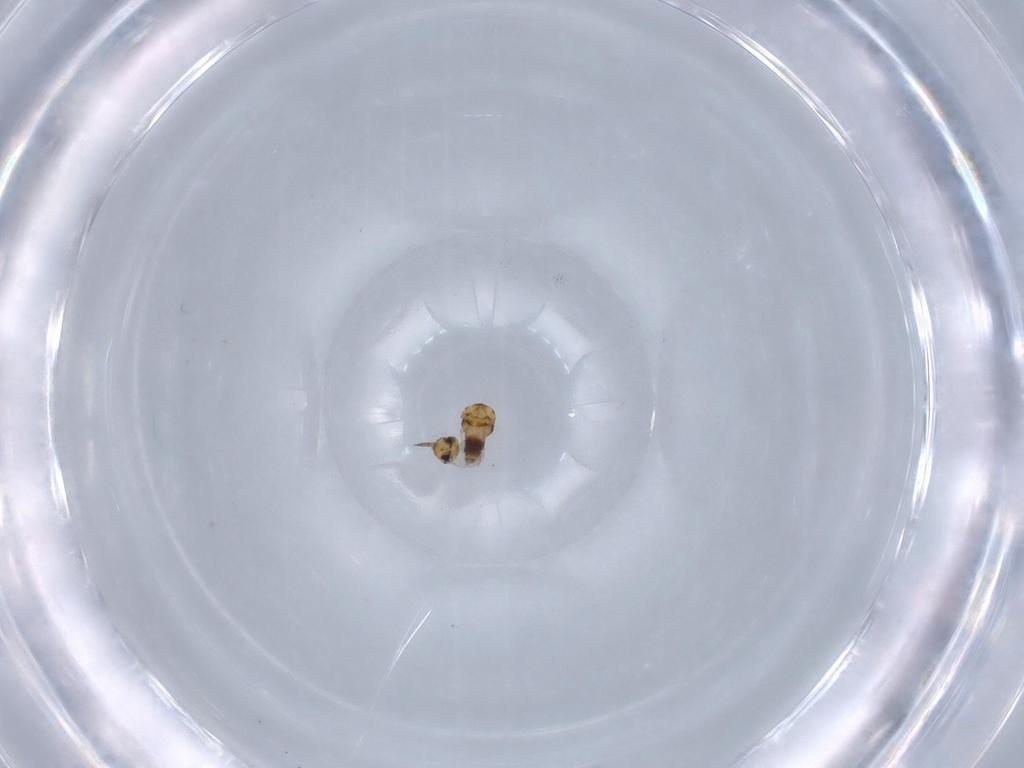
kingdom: Animalia
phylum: Arthropoda
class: Insecta
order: Hymenoptera
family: Aphelinidae
